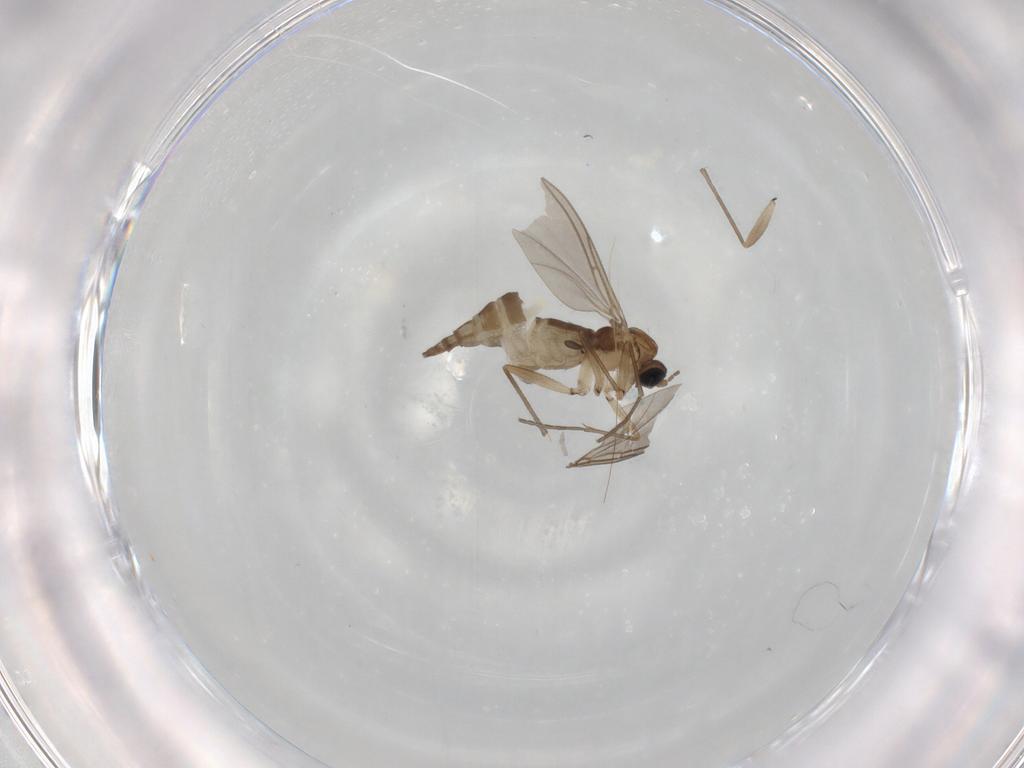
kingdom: Animalia
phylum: Arthropoda
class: Insecta
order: Diptera
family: Sciaridae
